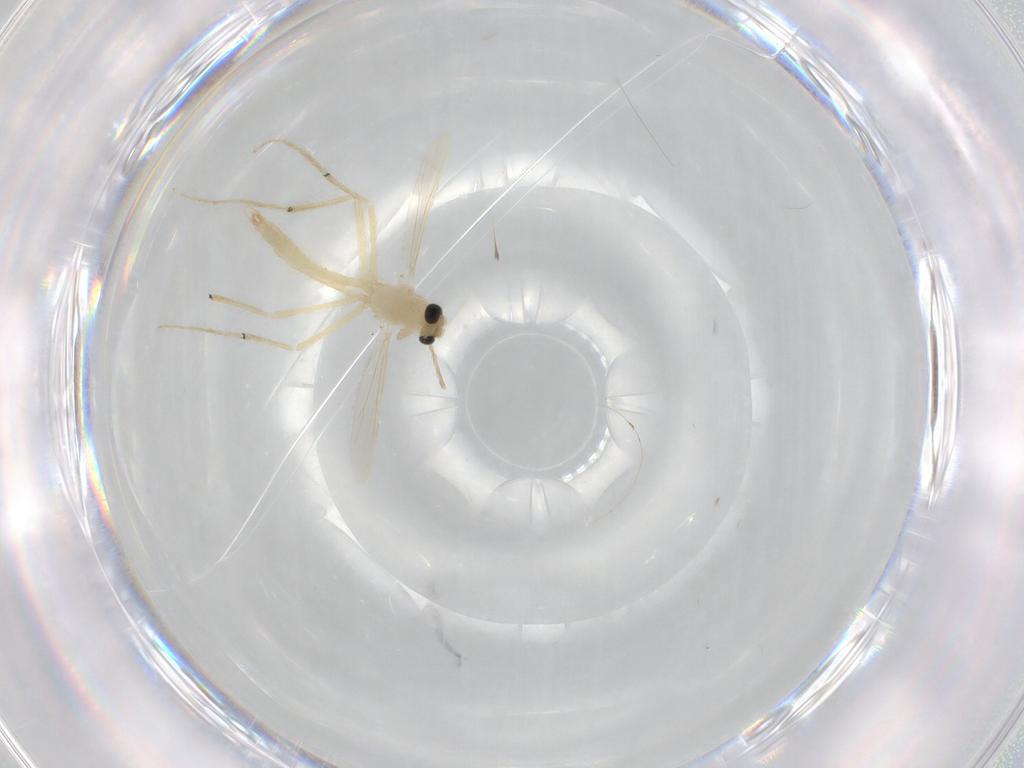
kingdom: Animalia
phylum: Arthropoda
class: Insecta
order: Diptera
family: Chironomidae
